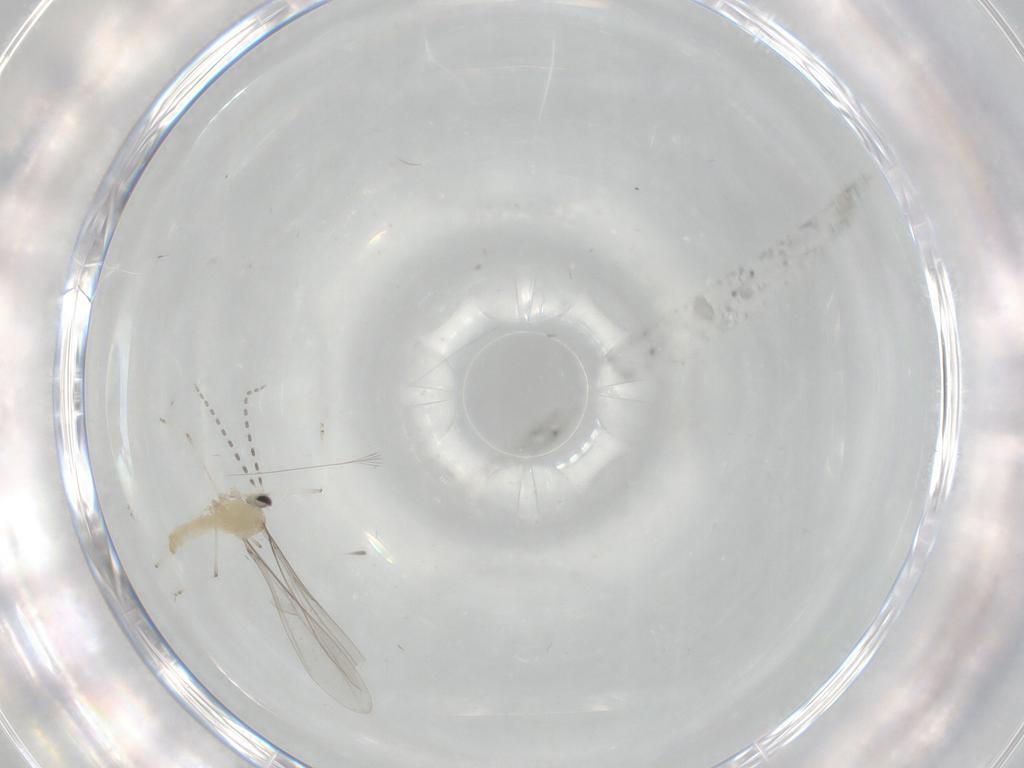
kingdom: Animalia
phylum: Arthropoda
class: Insecta
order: Diptera
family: Cecidomyiidae
